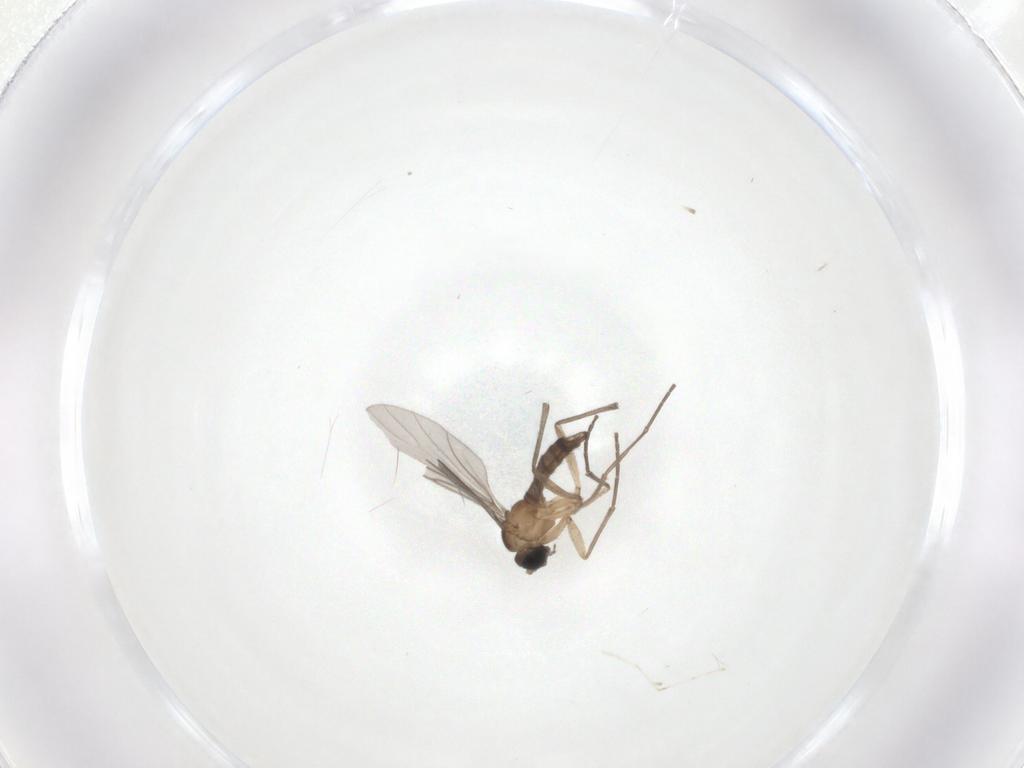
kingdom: Animalia
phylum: Arthropoda
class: Insecta
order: Diptera
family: Cecidomyiidae
